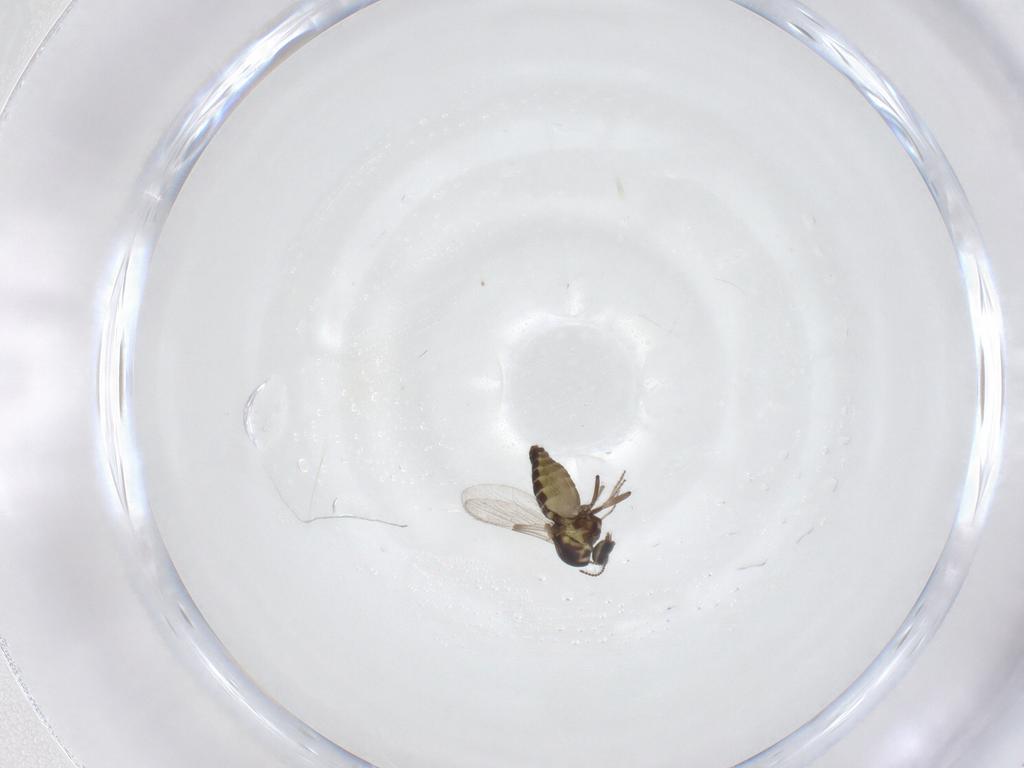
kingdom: Animalia
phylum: Arthropoda
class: Insecta
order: Diptera
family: Ceratopogonidae
